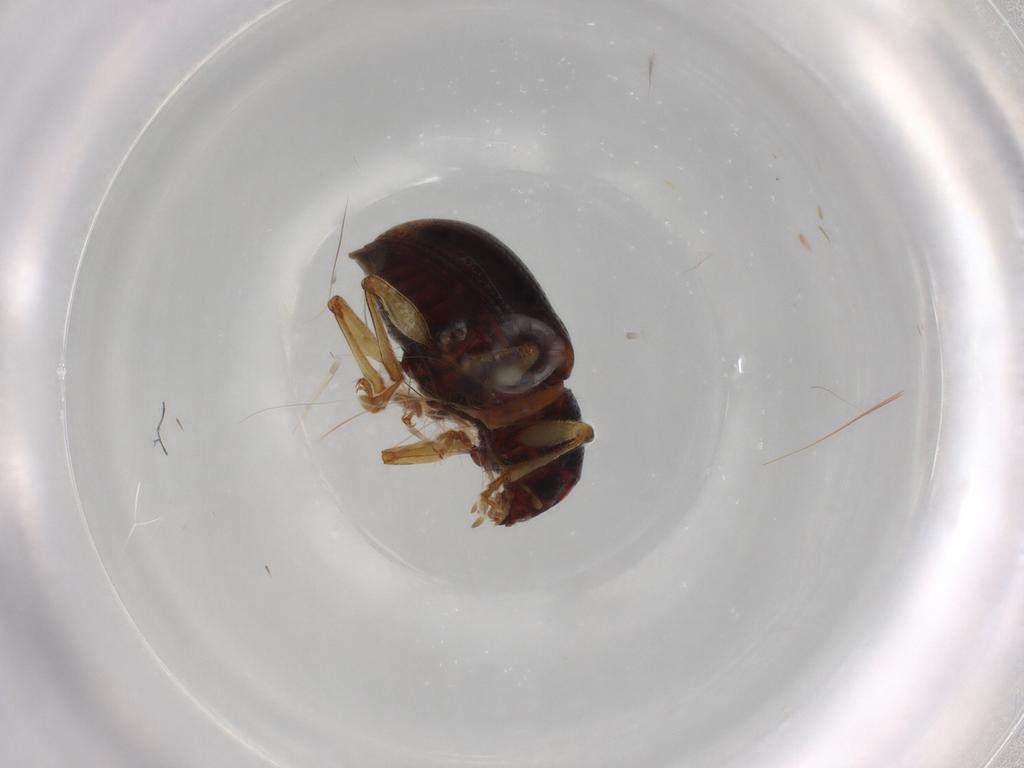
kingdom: Animalia
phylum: Arthropoda
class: Insecta
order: Coleoptera
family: Chrysomelidae
